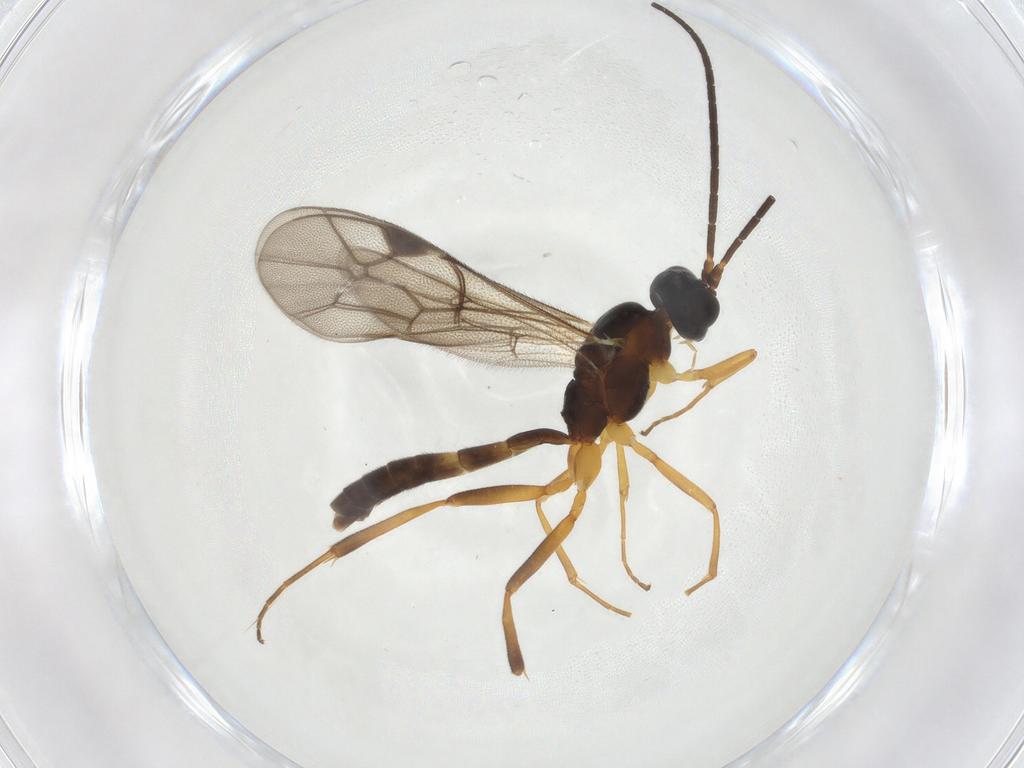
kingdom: Animalia
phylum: Arthropoda
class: Insecta
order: Hymenoptera
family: Ichneumonidae
